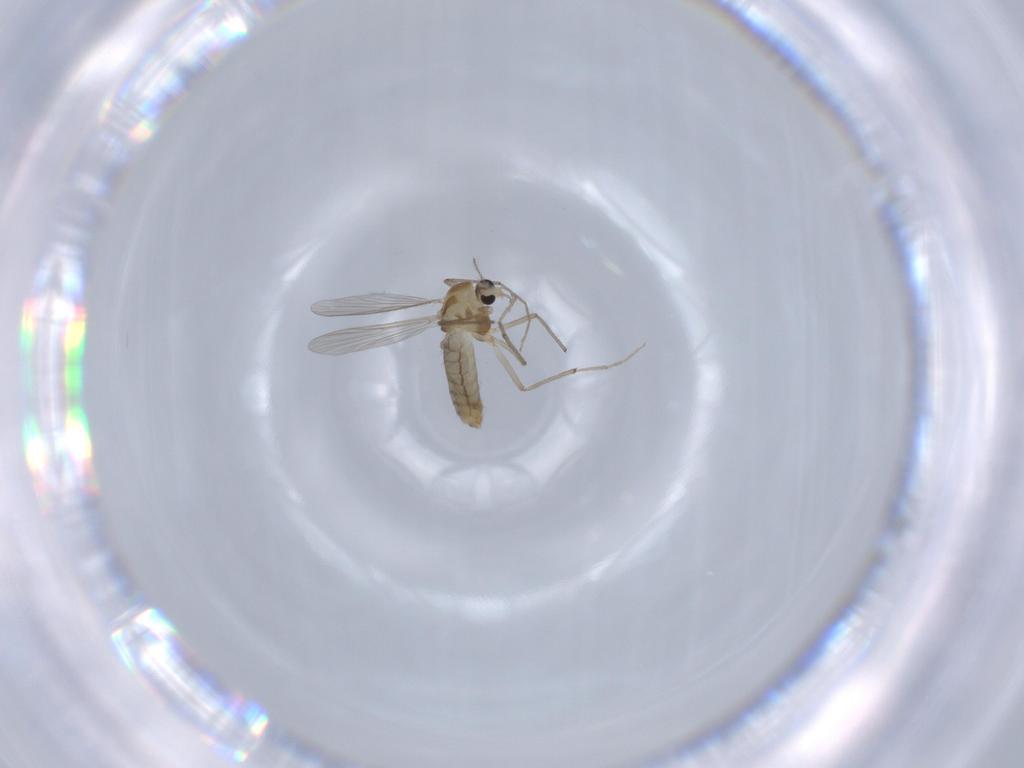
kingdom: Animalia
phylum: Arthropoda
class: Insecta
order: Diptera
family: Chironomidae
